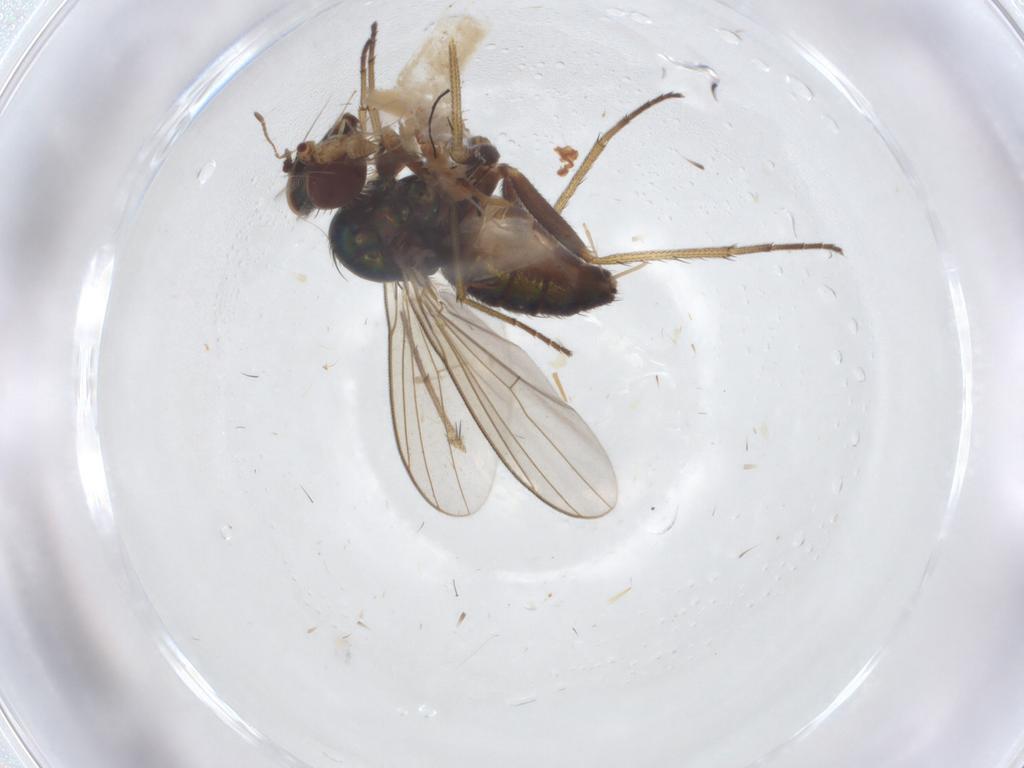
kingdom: Animalia
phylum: Arthropoda
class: Insecta
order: Diptera
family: Dolichopodidae
